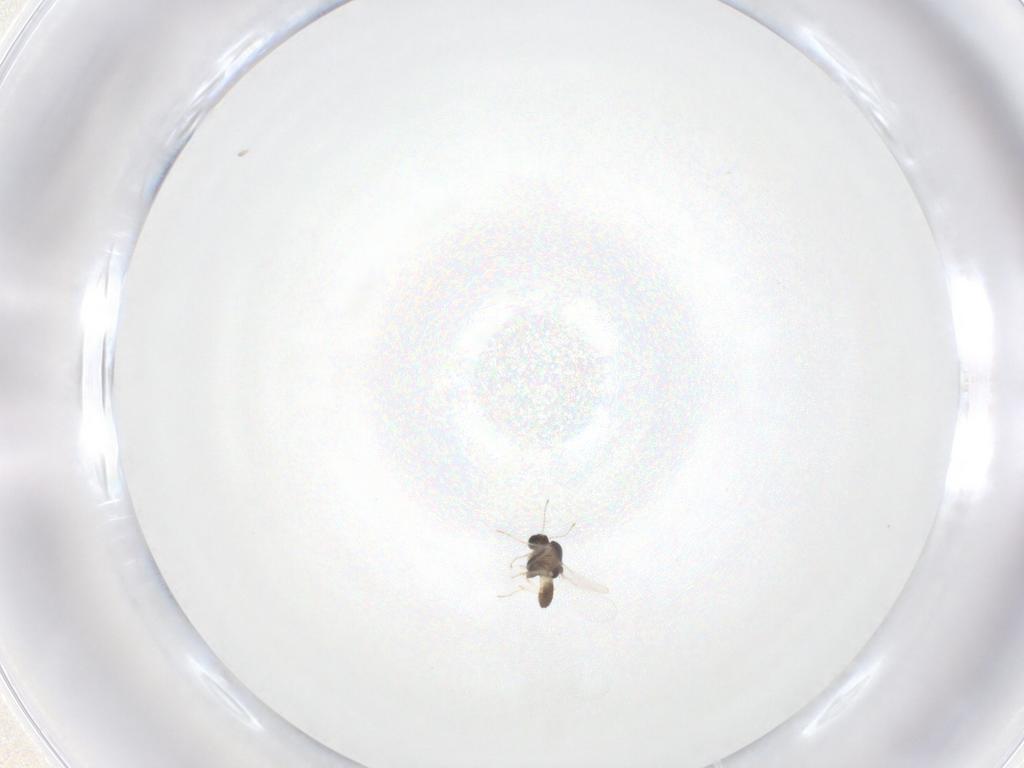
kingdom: Animalia
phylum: Arthropoda
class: Insecta
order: Diptera
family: Chironomidae
